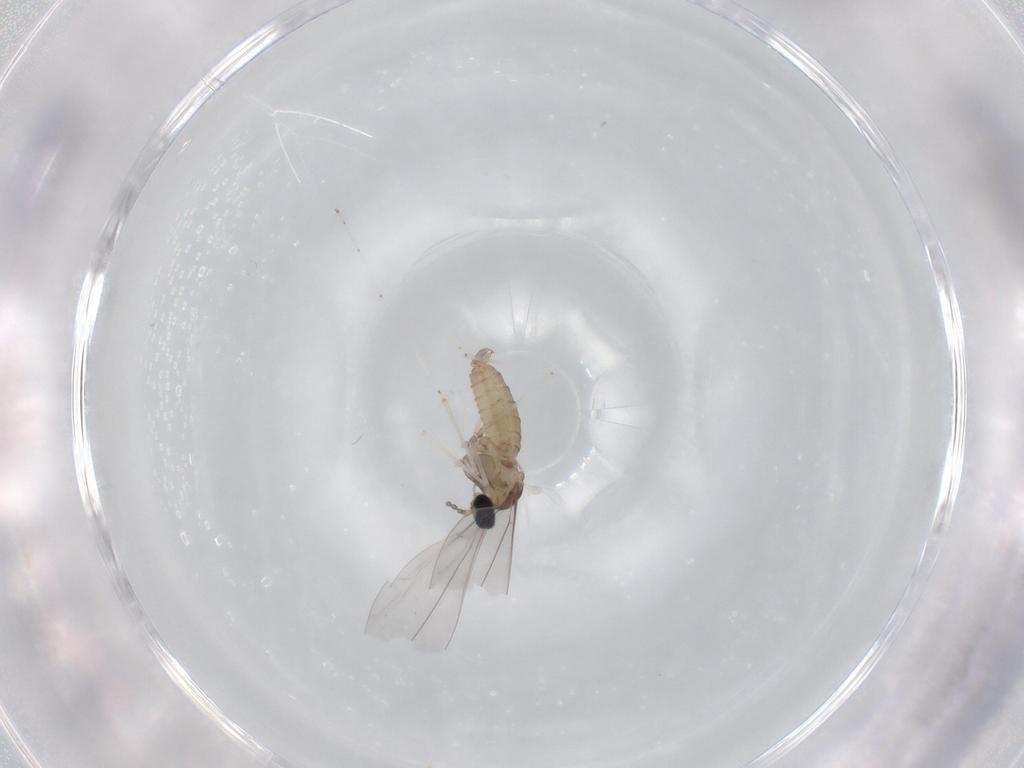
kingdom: Animalia
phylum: Arthropoda
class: Insecta
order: Diptera
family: Cecidomyiidae
